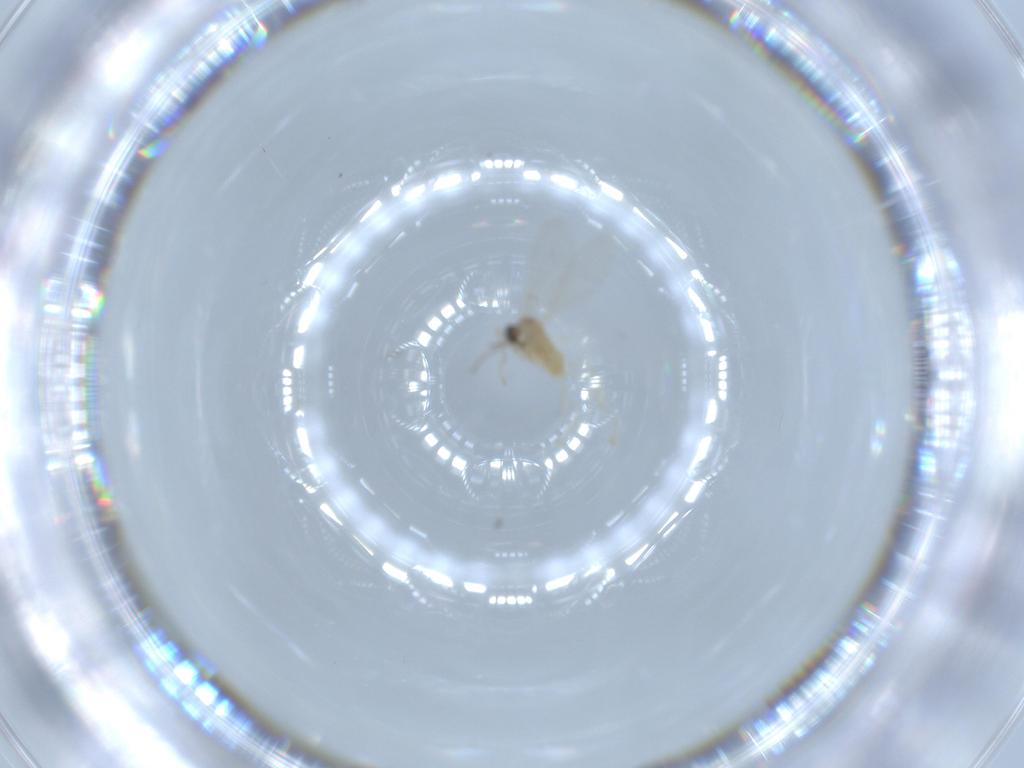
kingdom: Animalia
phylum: Arthropoda
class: Insecta
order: Diptera
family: Cecidomyiidae
